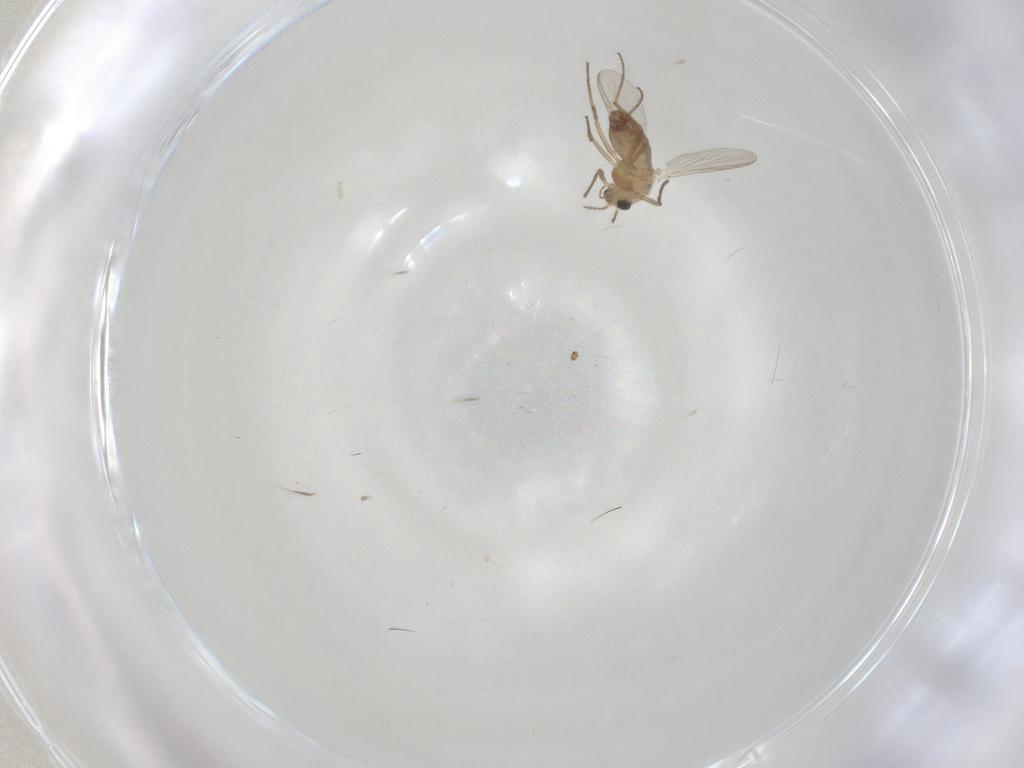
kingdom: Animalia
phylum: Arthropoda
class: Insecta
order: Diptera
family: Chironomidae
